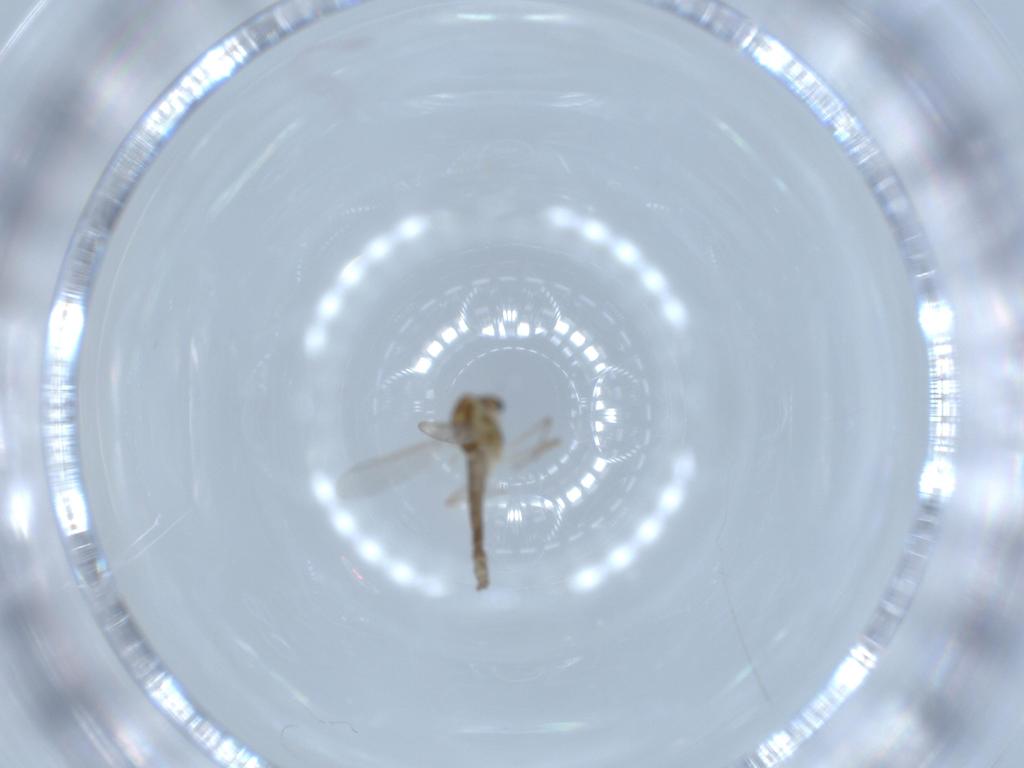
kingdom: Animalia
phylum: Arthropoda
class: Insecta
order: Diptera
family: Chironomidae
